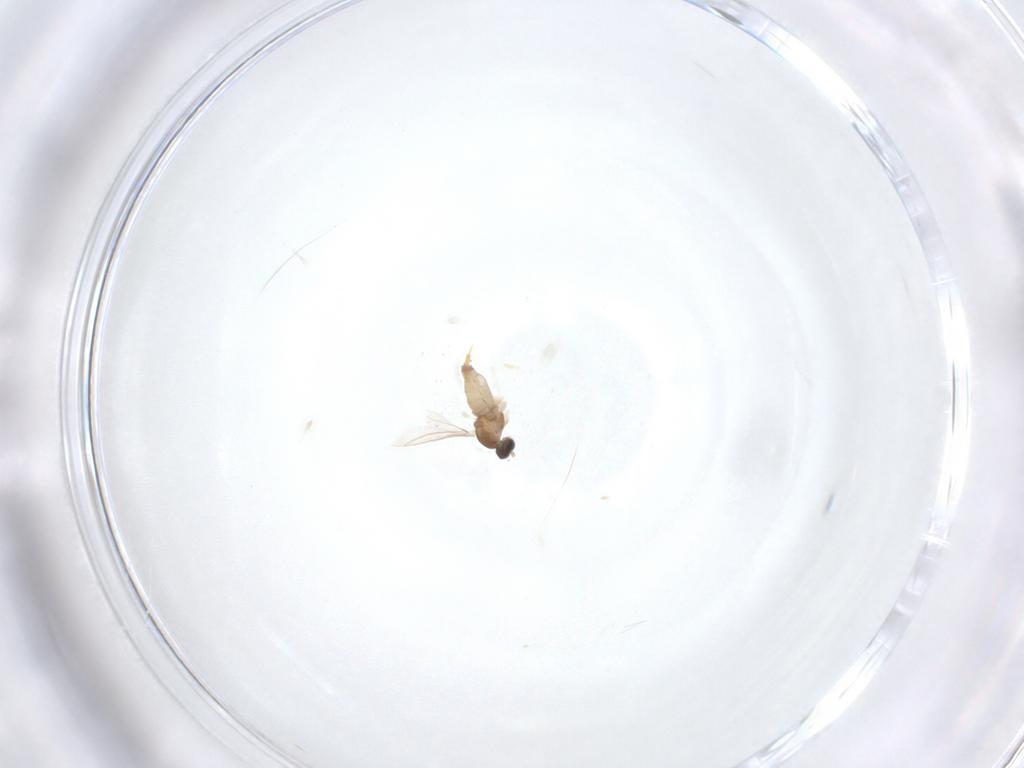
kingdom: Animalia
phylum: Arthropoda
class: Insecta
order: Diptera
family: Cecidomyiidae
